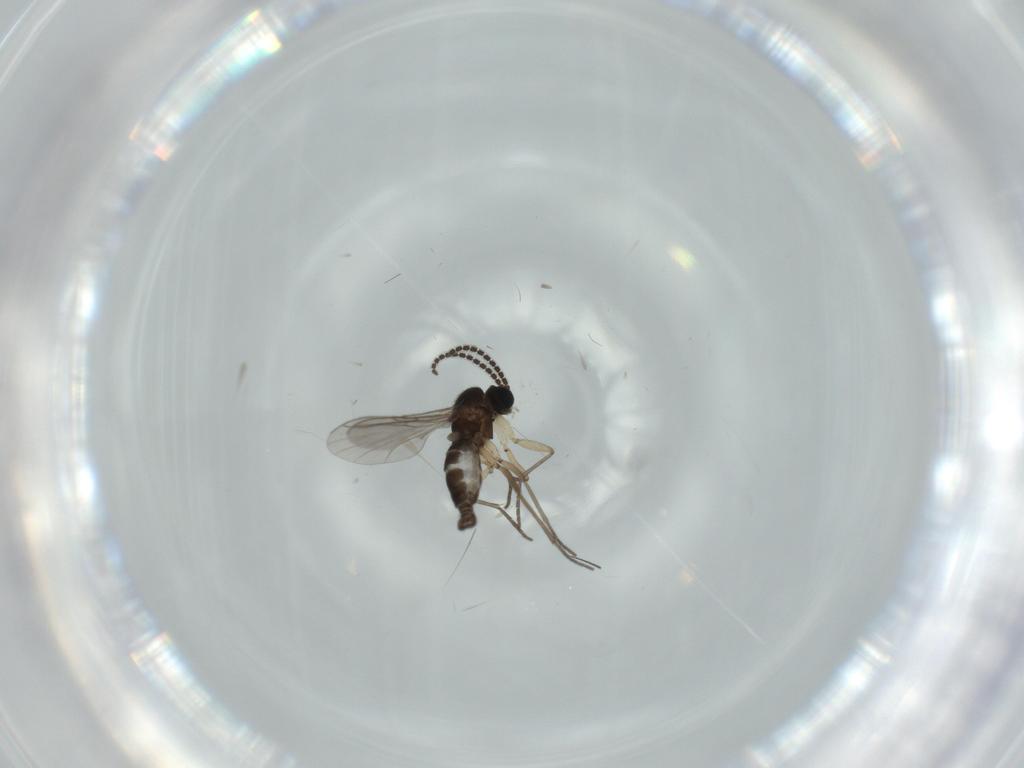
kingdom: Animalia
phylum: Arthropoda
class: Insecta
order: Diptera
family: Sciaridae
